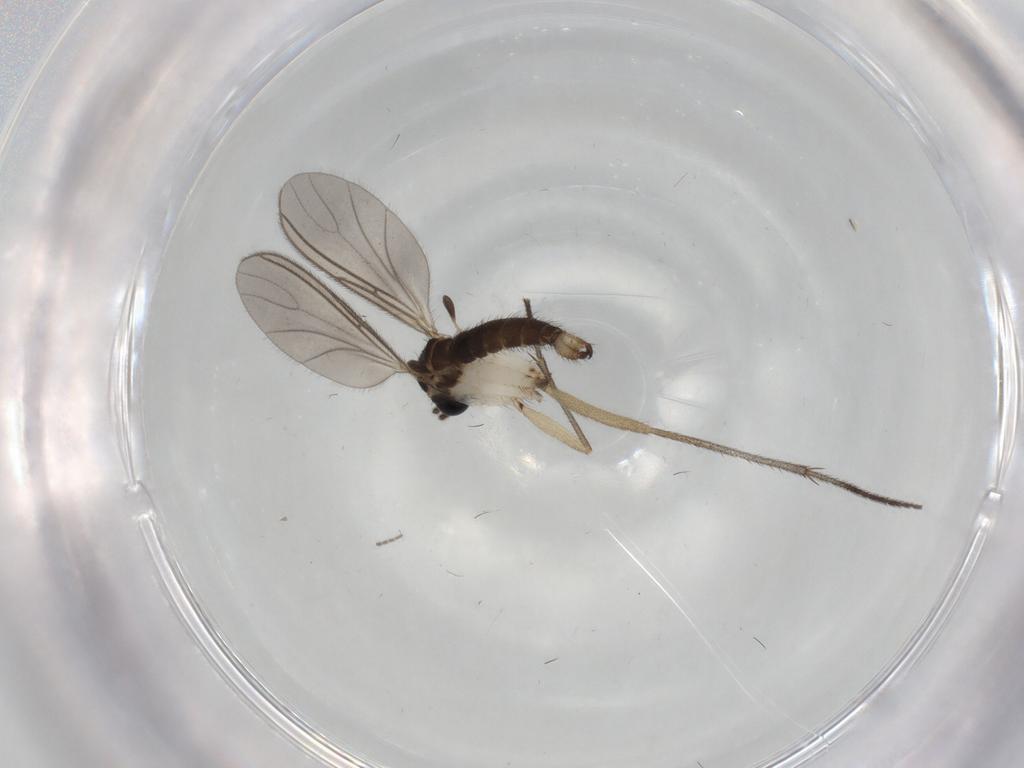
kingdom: Animalia
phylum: Arthropoda
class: Insecta
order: Diptera
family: Sciaridae
